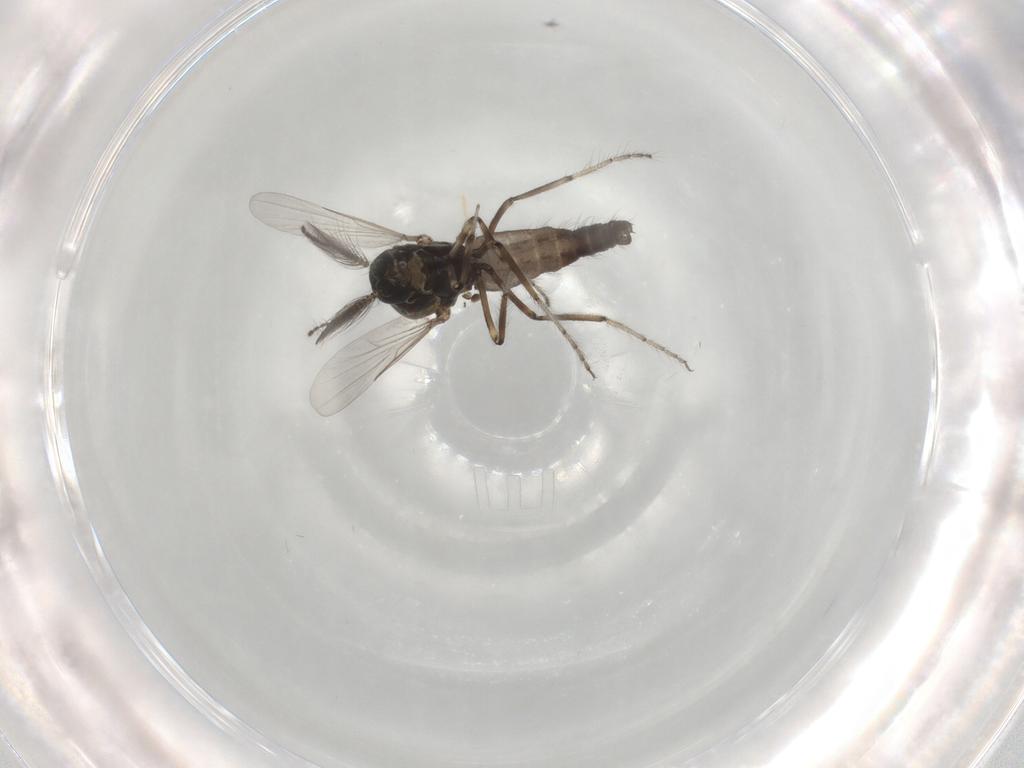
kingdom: Animalia
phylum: Arthropoda
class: Insecta
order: Diptera
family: Ceratopogonidae
